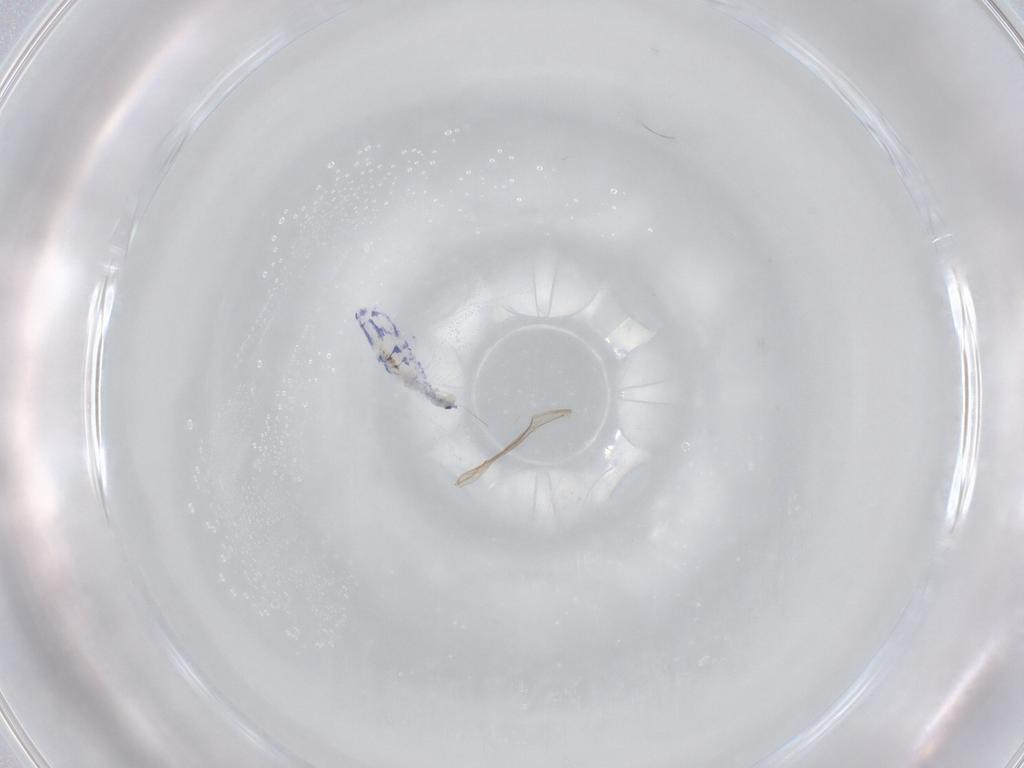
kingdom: Animalia
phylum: Arthropoda
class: Collembola
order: Entomobryomorpha
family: Entomobryidae
